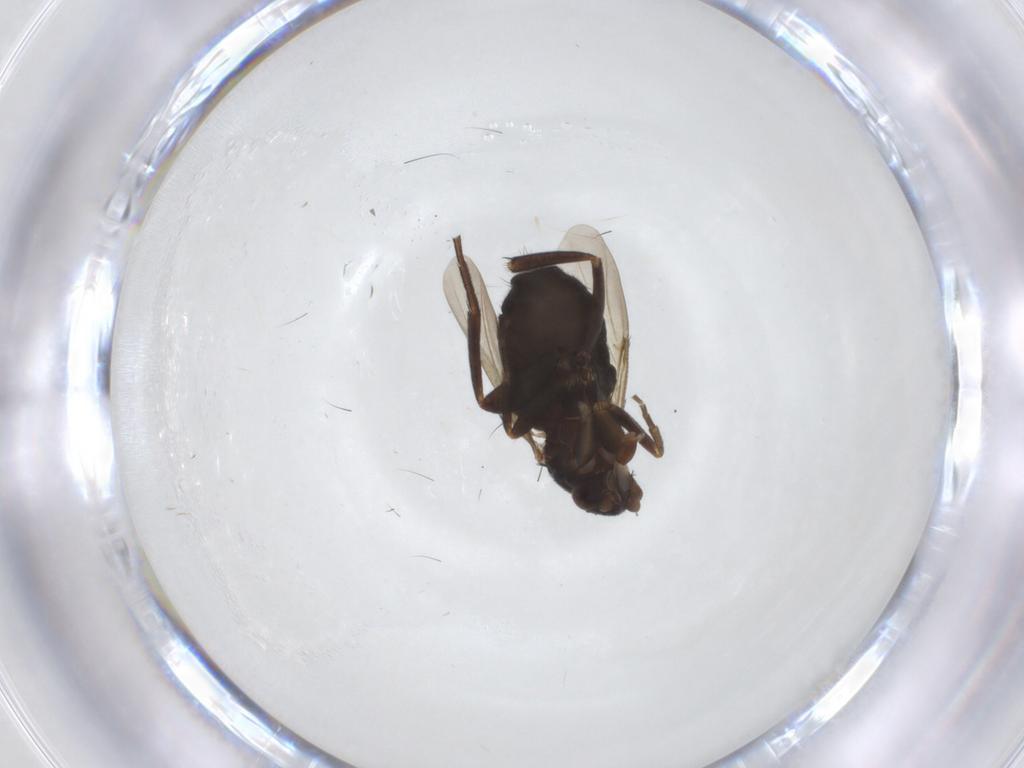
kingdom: Animalia
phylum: Arthropoda
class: Insecta
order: Diptera
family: Phoridae
